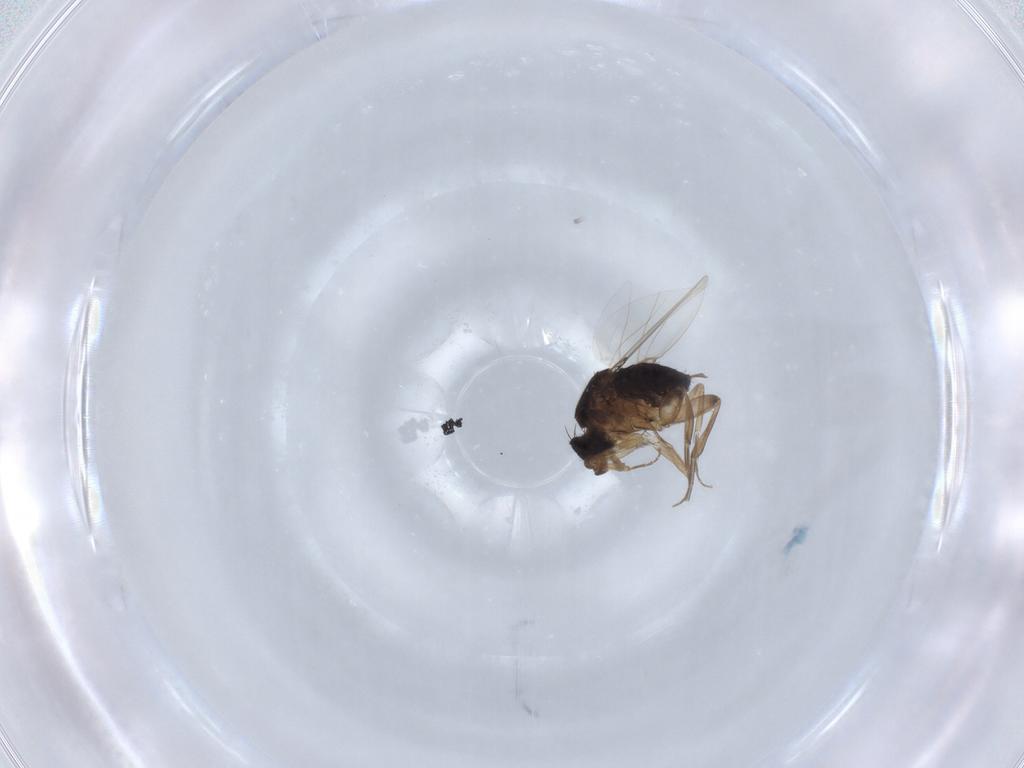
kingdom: Animalia
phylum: Arthropoda
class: Insecta
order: Diptera
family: Phoridae
